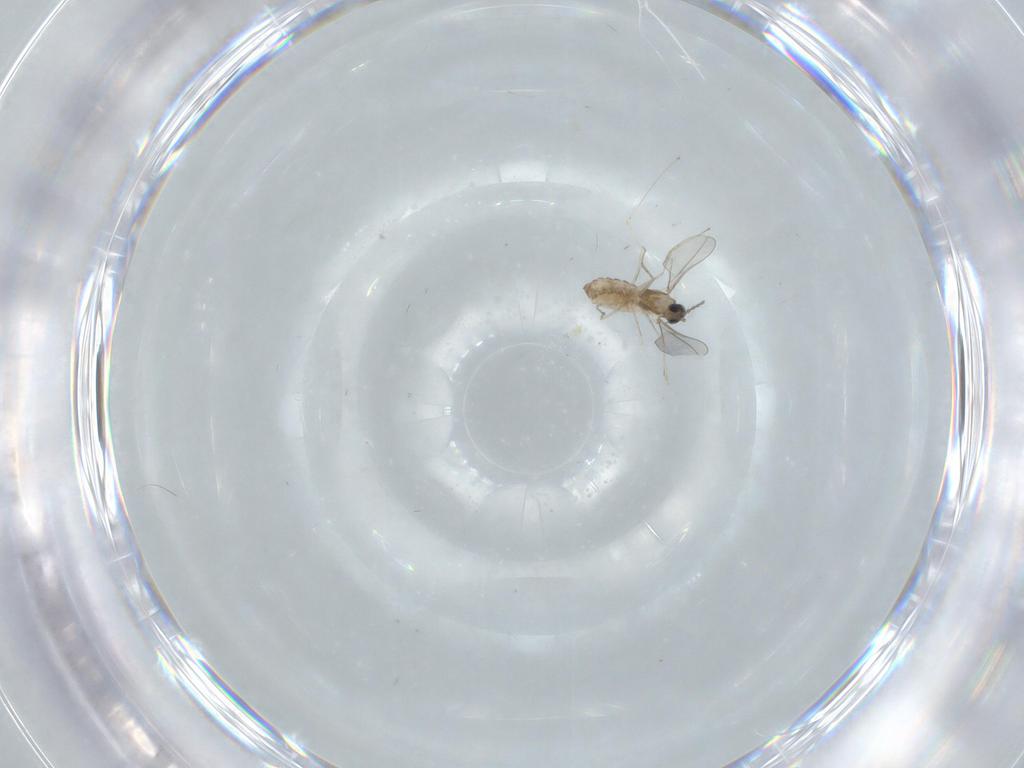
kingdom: Animalia
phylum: Arthropoda
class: Insecta
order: Diptera
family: Cecidomyiidae
